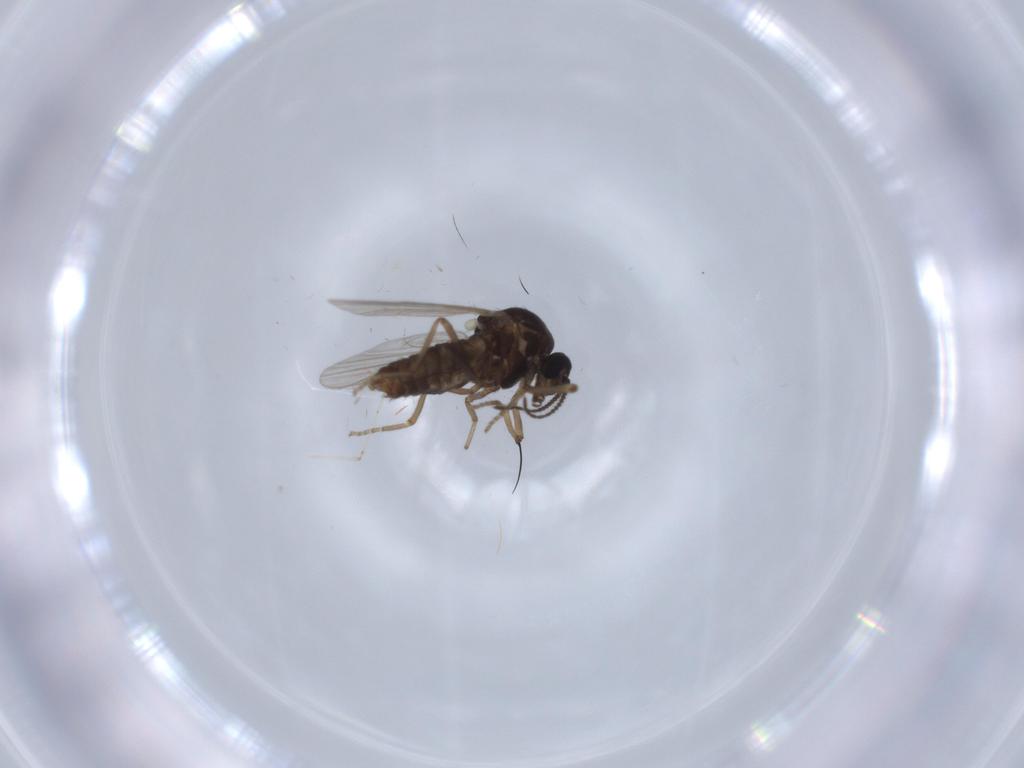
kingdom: Animalia
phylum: Arthropoda
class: Insecta
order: Diptera
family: Ceratopogonidae
